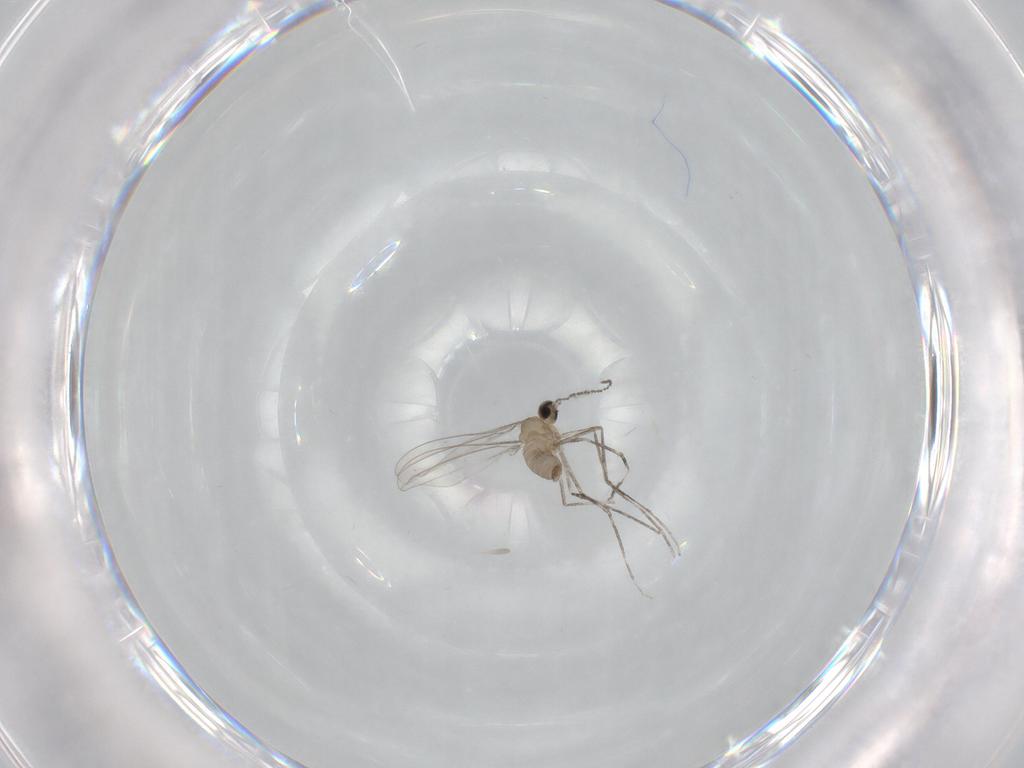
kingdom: Animalia
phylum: Arthropoda
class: Insecta
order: Diptera
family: Cecidomyiidae
